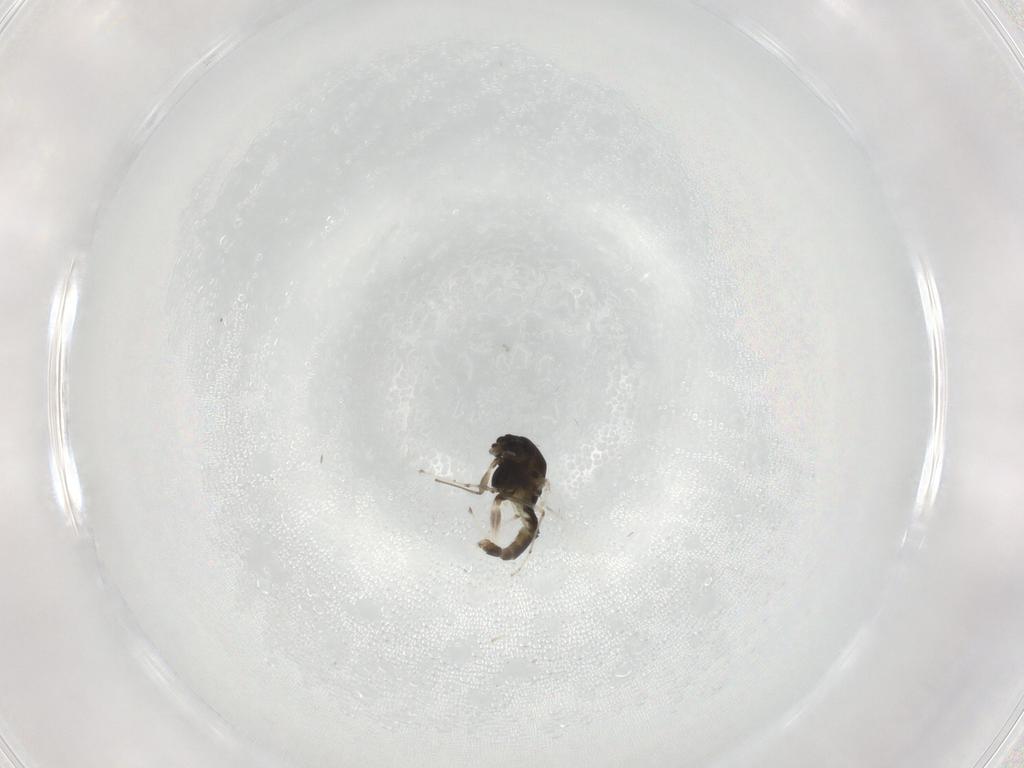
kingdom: Animalia
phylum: Arthropoda
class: Insecta
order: Diptera
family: Chironomidae
